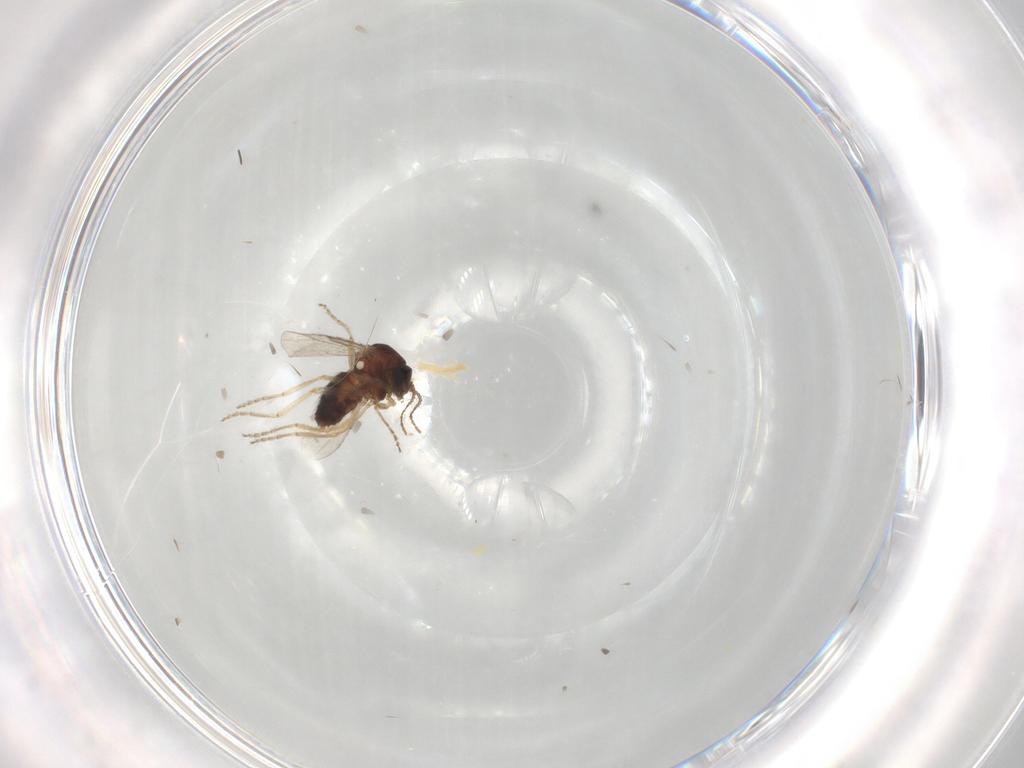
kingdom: Animalia
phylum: Arthropoda
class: Insecta
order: Diptera
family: Ceratopogonidae
